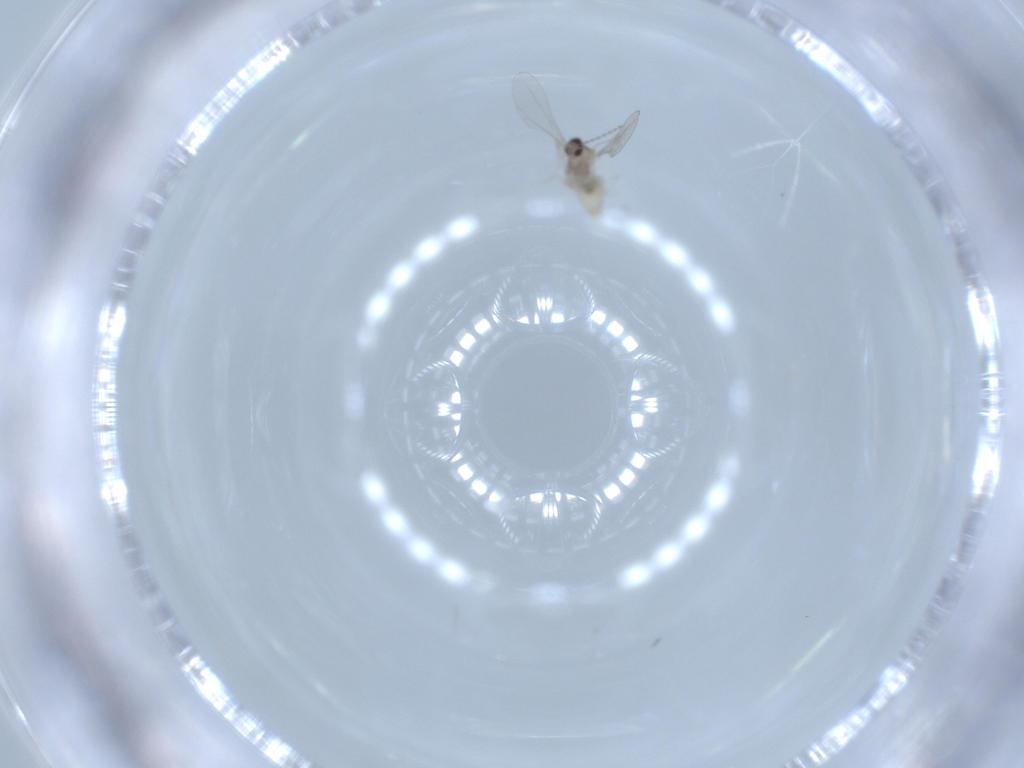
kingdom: Animalia
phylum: Arthropoda
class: Insecta
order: Diptera
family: Cecidomyiidae
